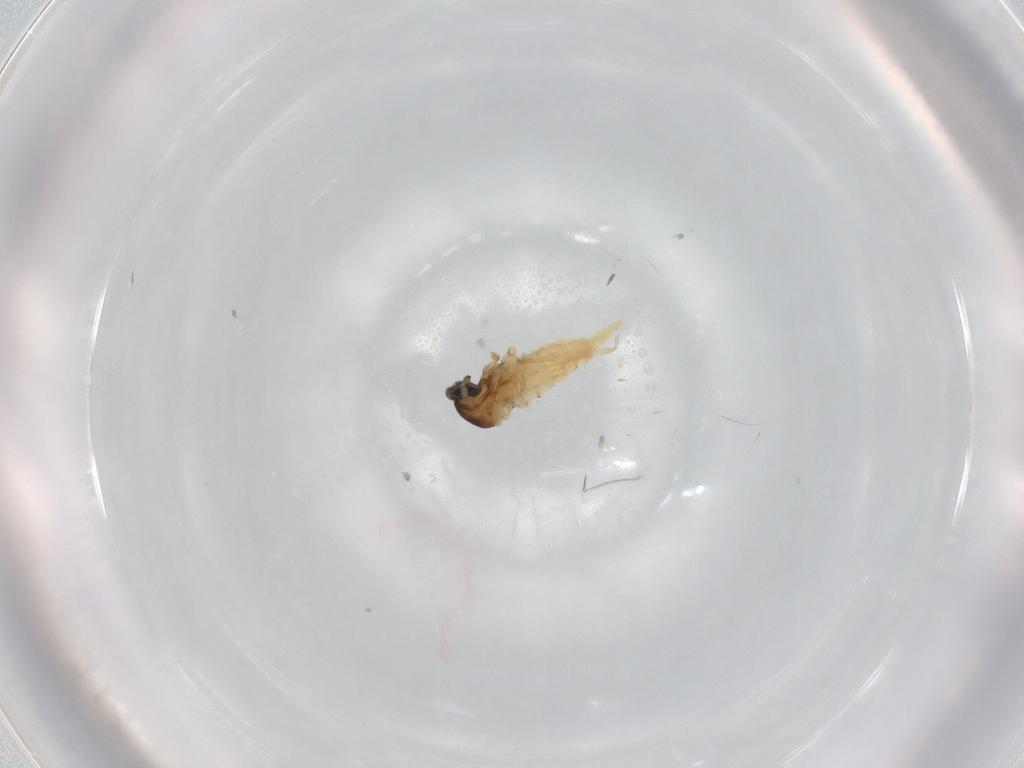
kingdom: Animalia
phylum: Arthropoda
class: Insecta
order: Diptera
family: Cecidomyiidae
